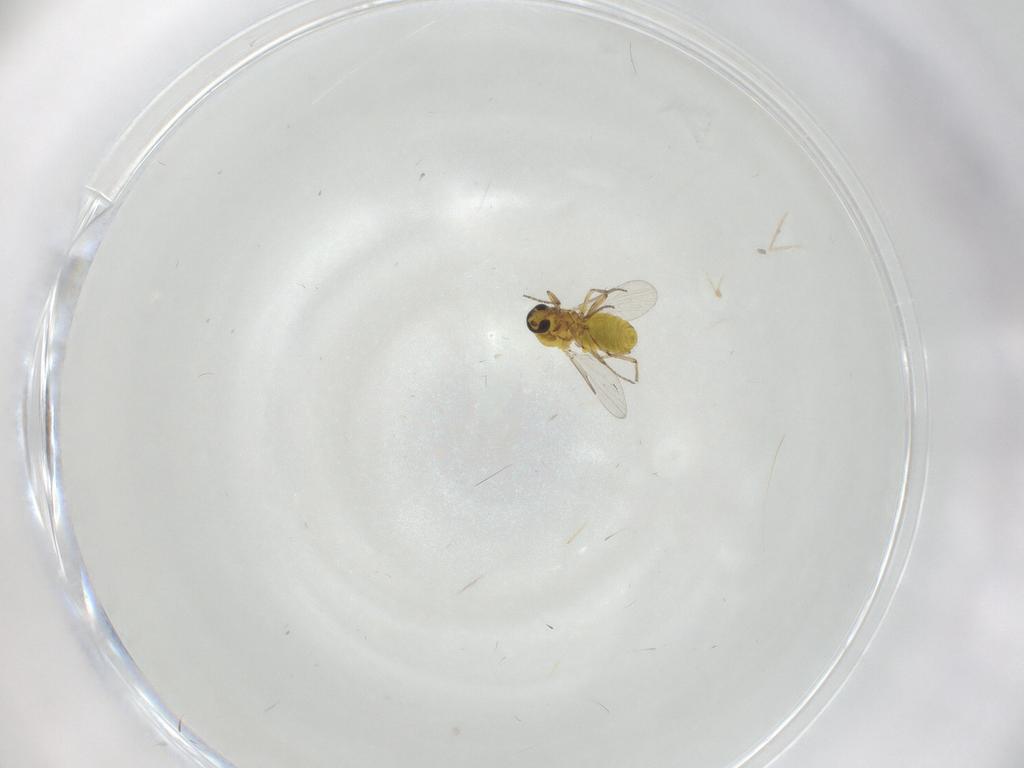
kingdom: Animalia
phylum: Arthropoda
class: Insecta
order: Diptera
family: Ceratopogonidae
